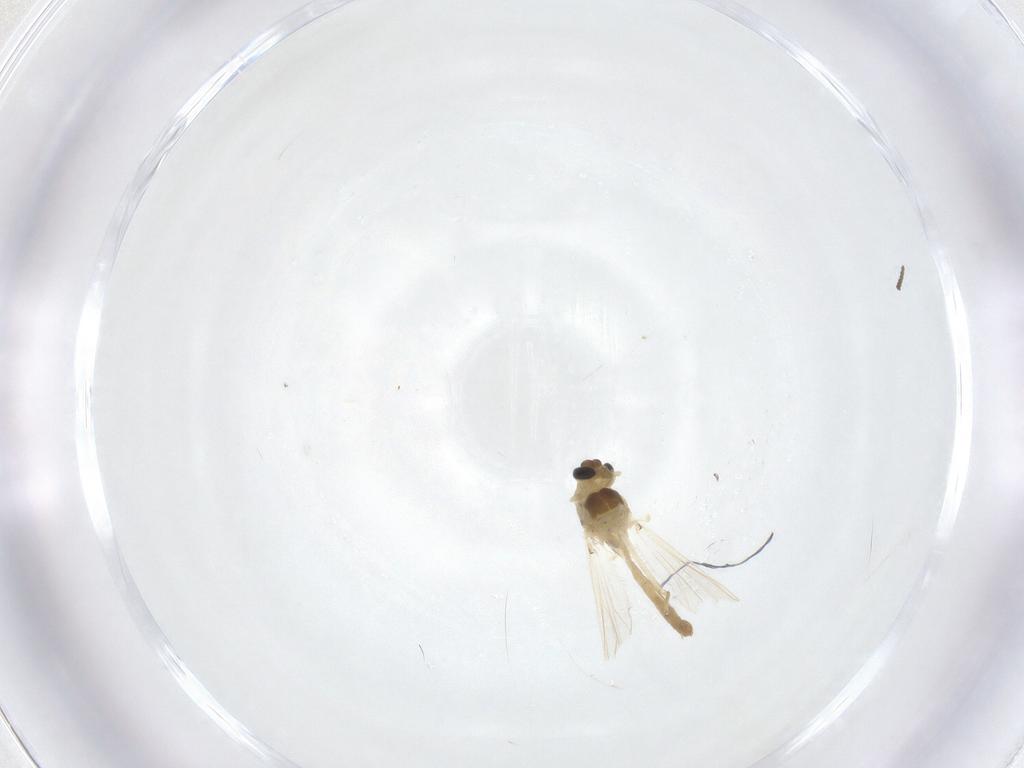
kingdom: Animalia
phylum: Arthropoda
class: Insecta
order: Diptera
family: Chironomidae
